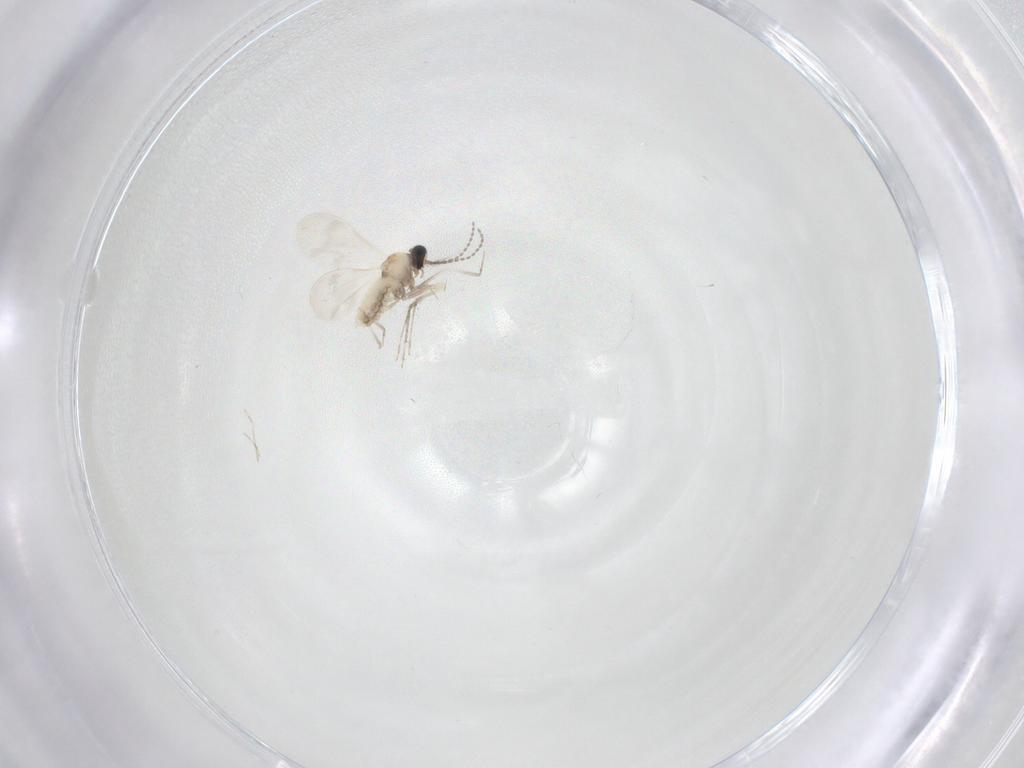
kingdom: Animalia
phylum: Arthropoda
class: Insecta
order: Diptera
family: Cecidomyiidae
